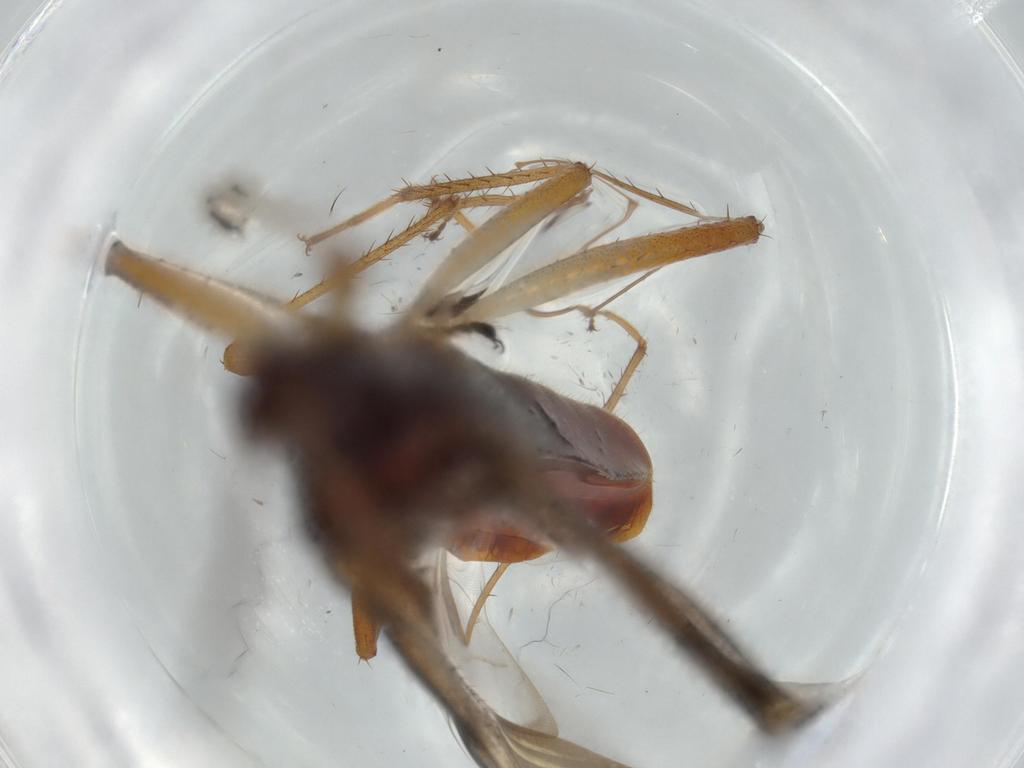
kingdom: Animalia
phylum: Arthropoda
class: Insecta
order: Hemiptera
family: Rhyparochromidae
